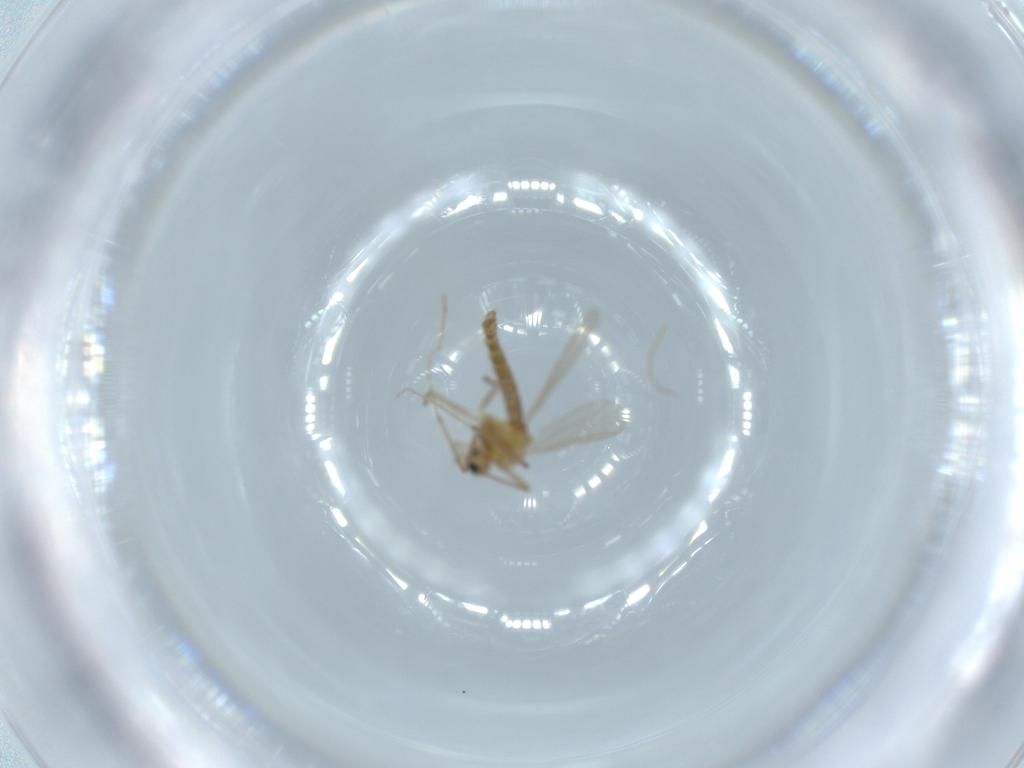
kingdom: Animalia
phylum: Arthropoda
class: Insecta
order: Diptera
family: Chironomidae
